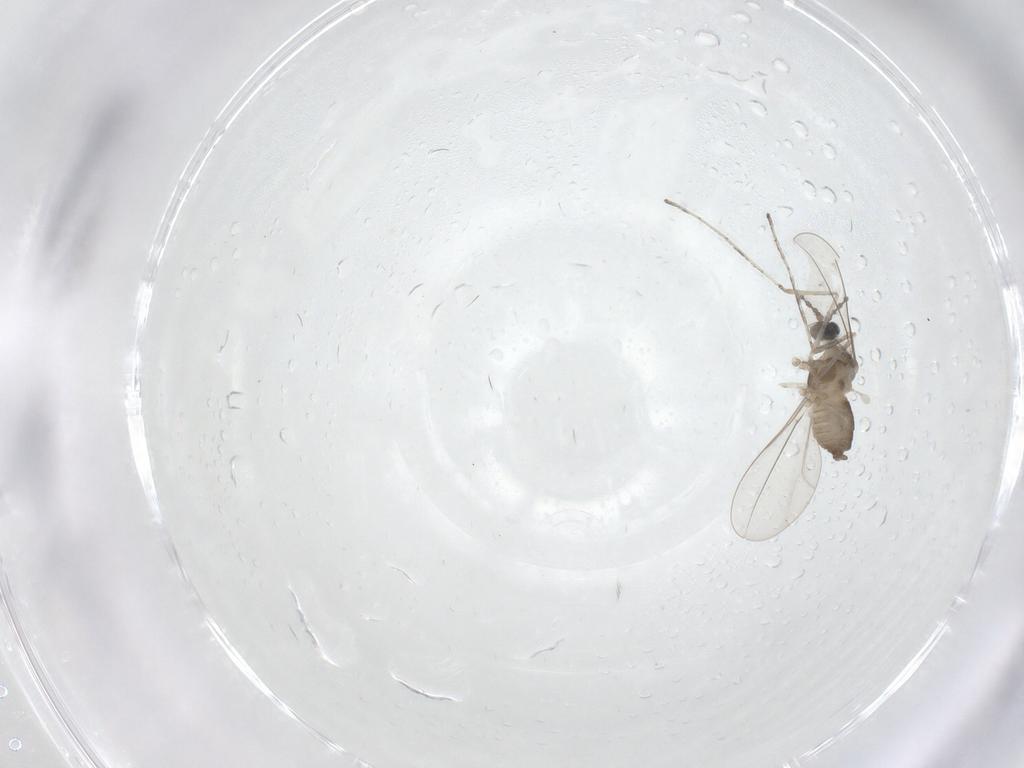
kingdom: Animalia
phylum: Arthropoda
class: Insecta
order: Diptera
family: Cecidomyiidae
